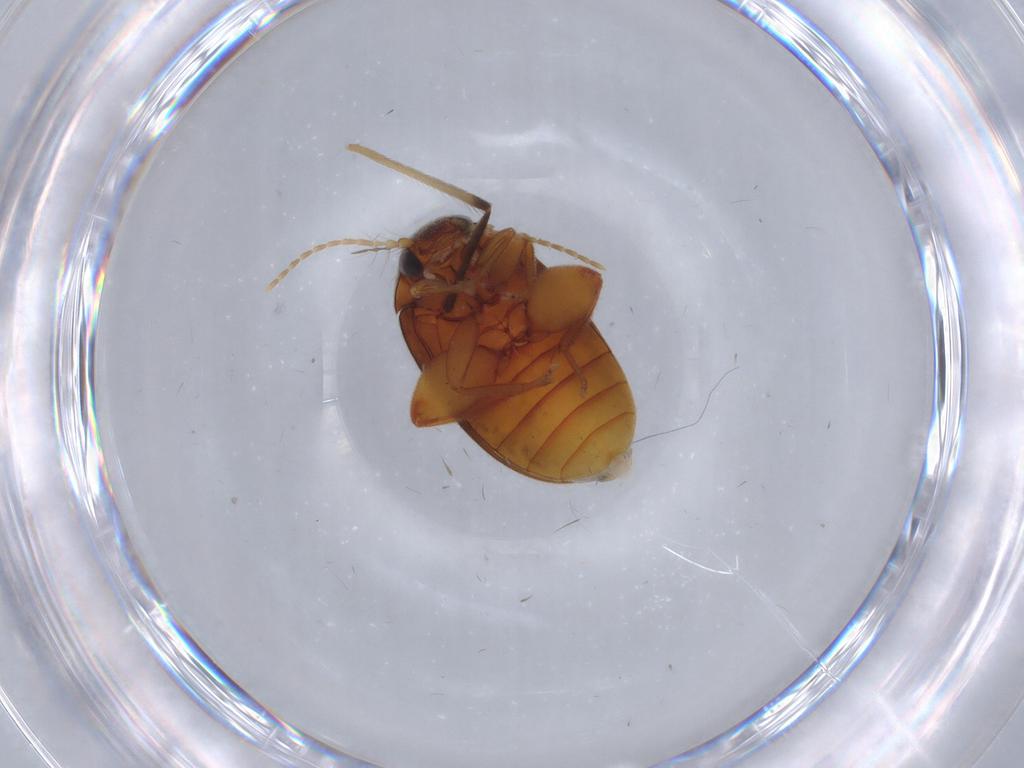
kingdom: Animalia
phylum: Arthropoda
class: Insecta
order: Coleoptera
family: Scirtidae
